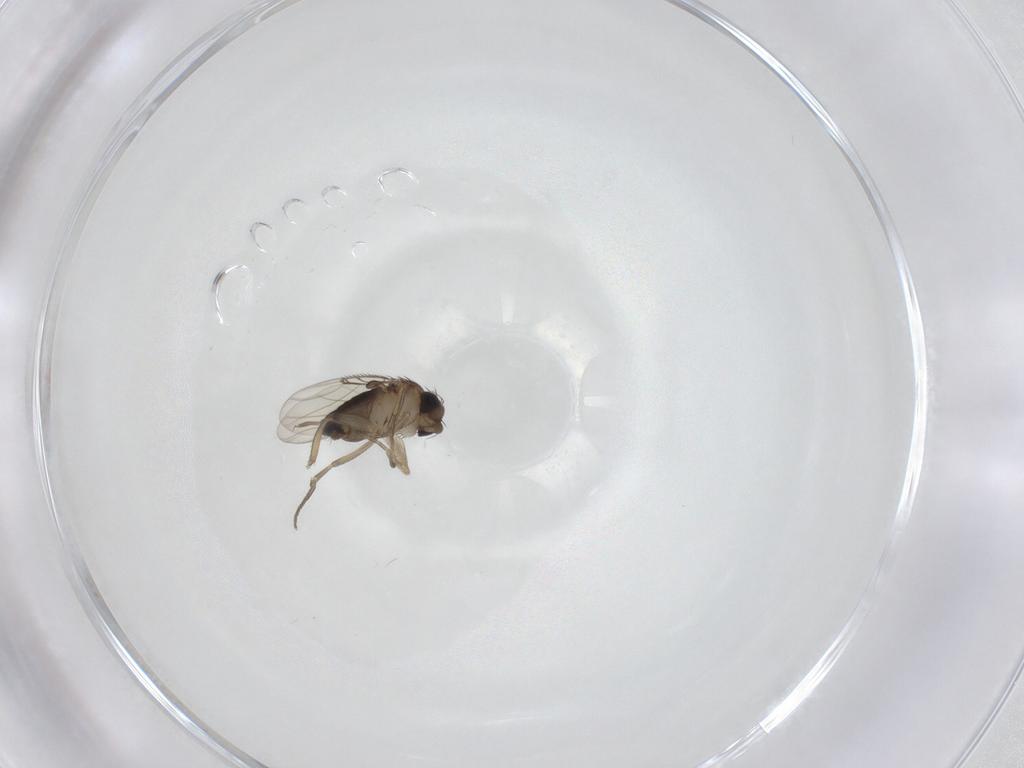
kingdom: Animalia
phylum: Arthropoda
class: Insecta
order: Diptera
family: Phoridae
